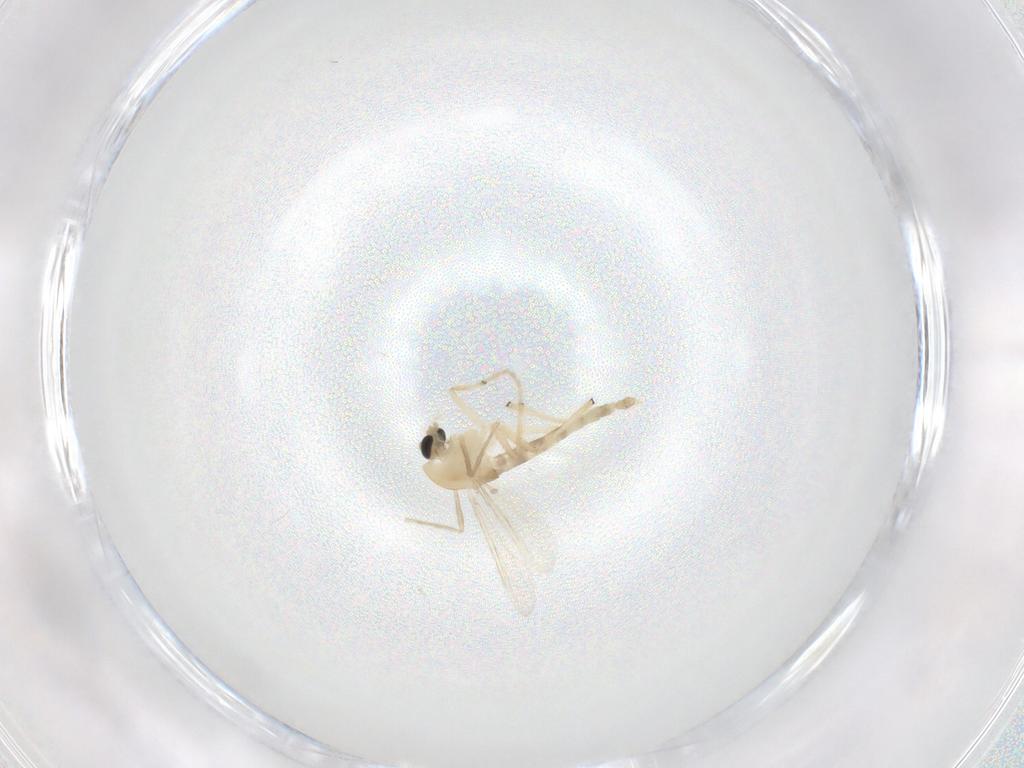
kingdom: Animalia
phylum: Arthropoda
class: Insecta
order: Diptera
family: Chironomidae
